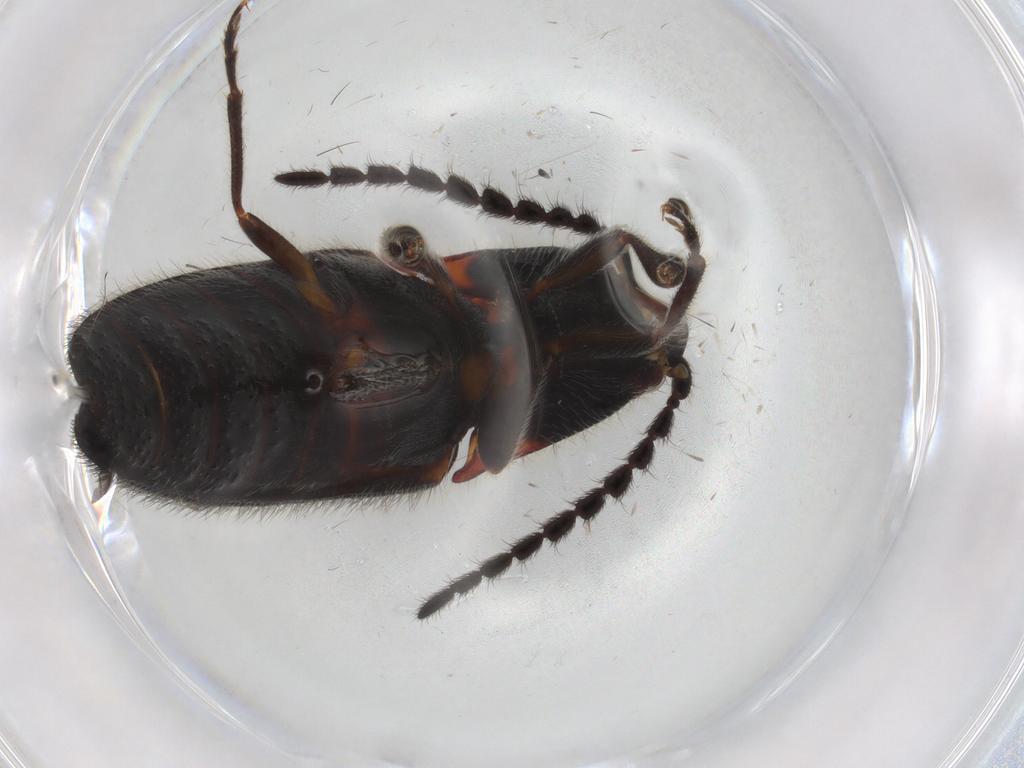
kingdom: Animalia
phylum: Arthropoda
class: Insecta
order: Coleoptera
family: Elateridae
